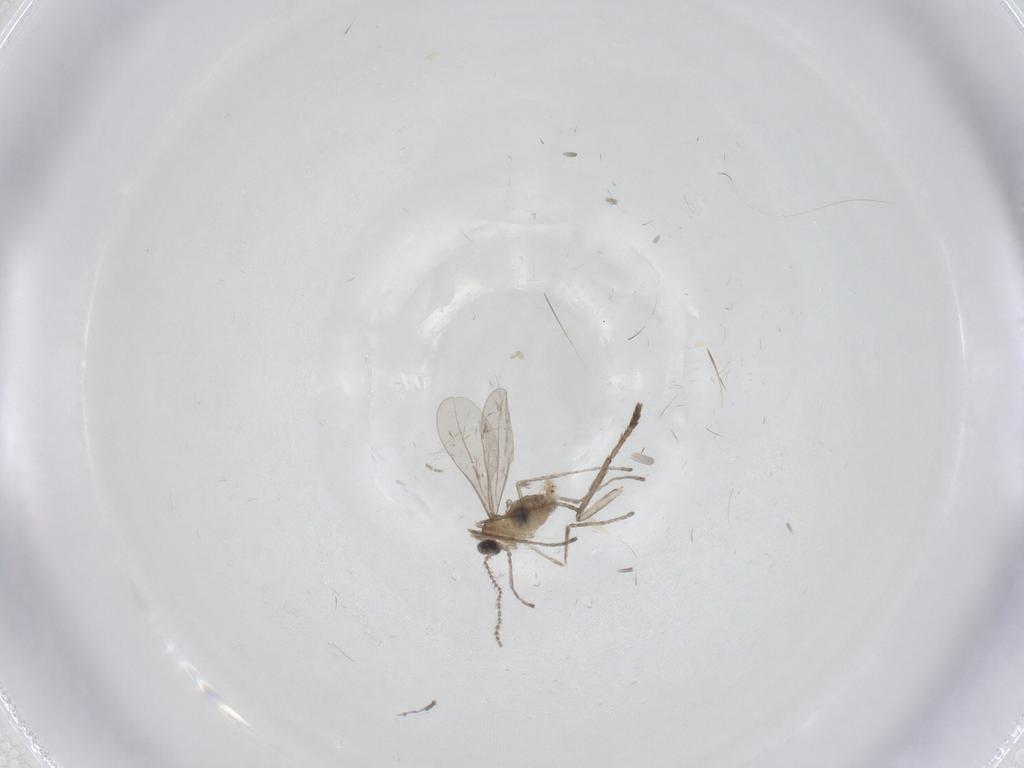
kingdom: Animalia
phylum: Arthropoda
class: Insecta
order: Diptera
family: Psychodidae
